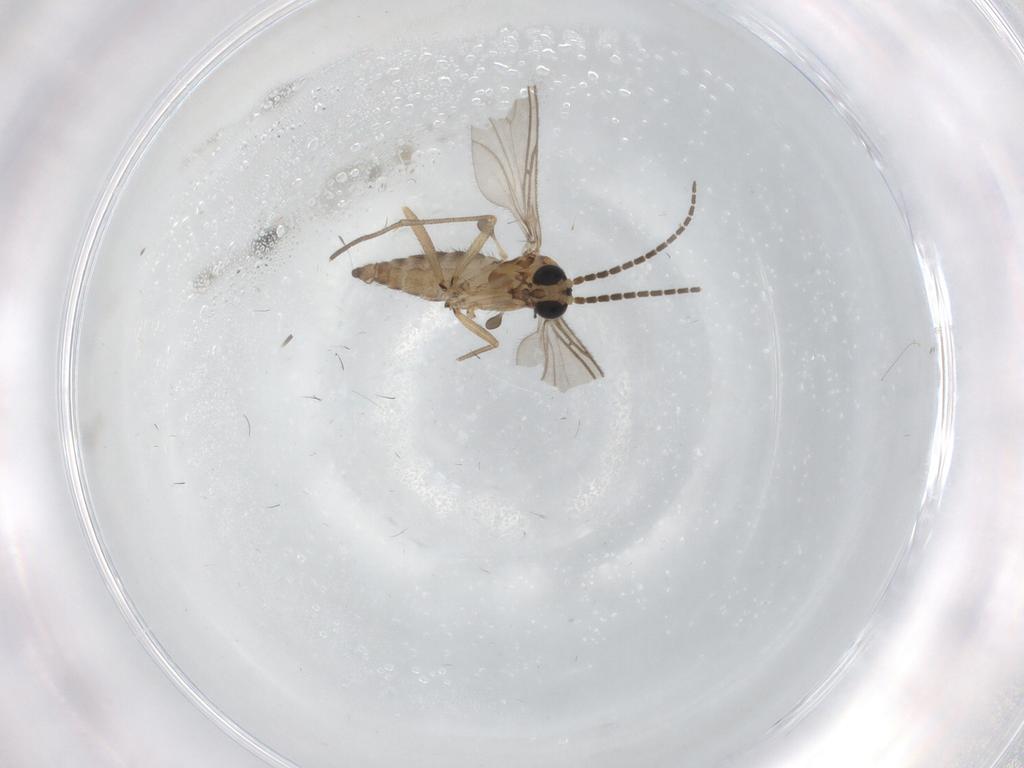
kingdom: Animalia
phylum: Arthropoda
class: Insecta
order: Diptera
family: Sciaridae
